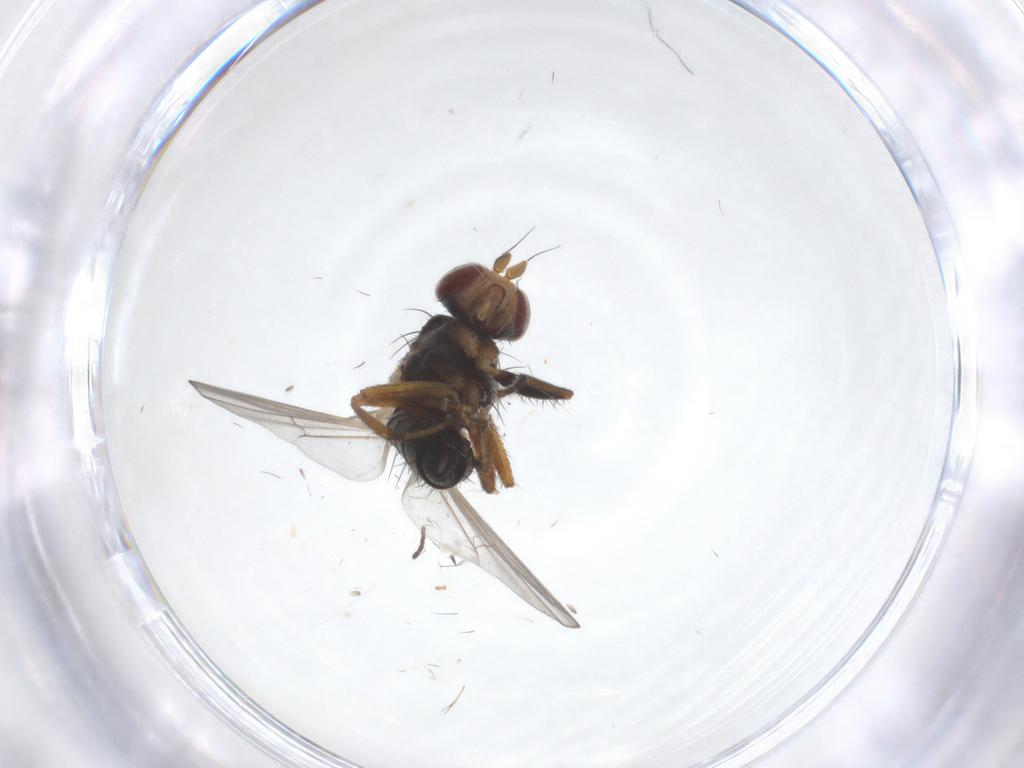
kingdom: Animalia
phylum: Arthropoda
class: Insecta
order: Diptera
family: Heleomyzidae
